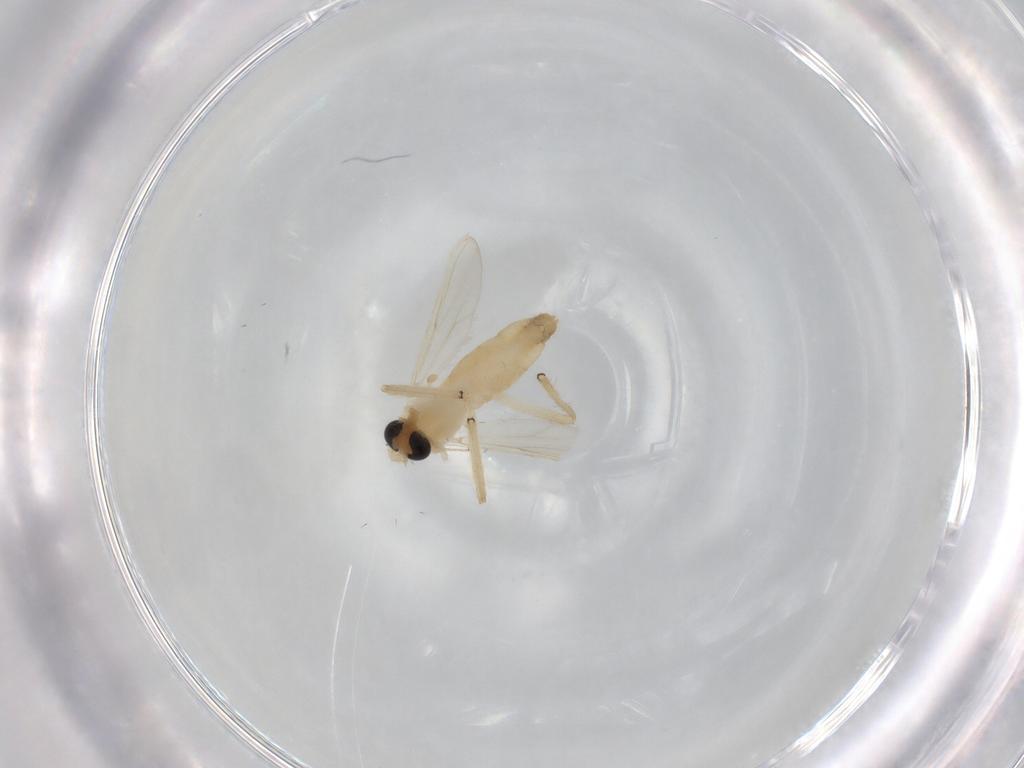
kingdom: Animalia
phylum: Arthropoda
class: Insecta
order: Diptera
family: Dolichopodidae
